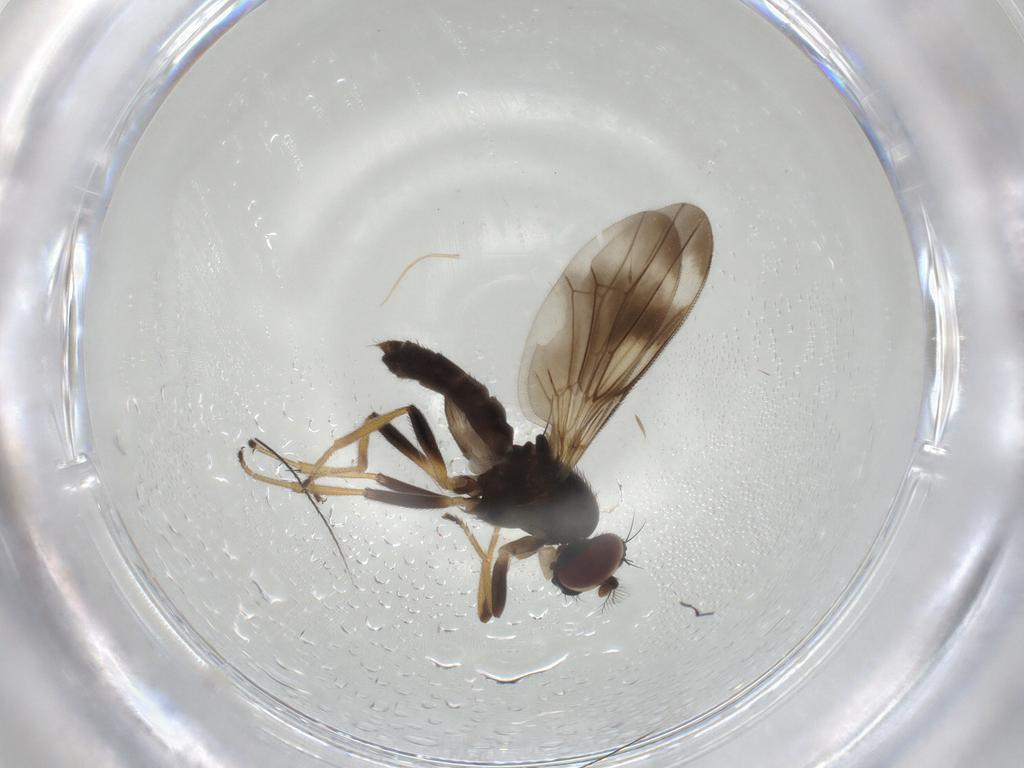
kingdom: Animalia
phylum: Arthropoda
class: Insecta
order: Diptera
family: Keroplatidae
